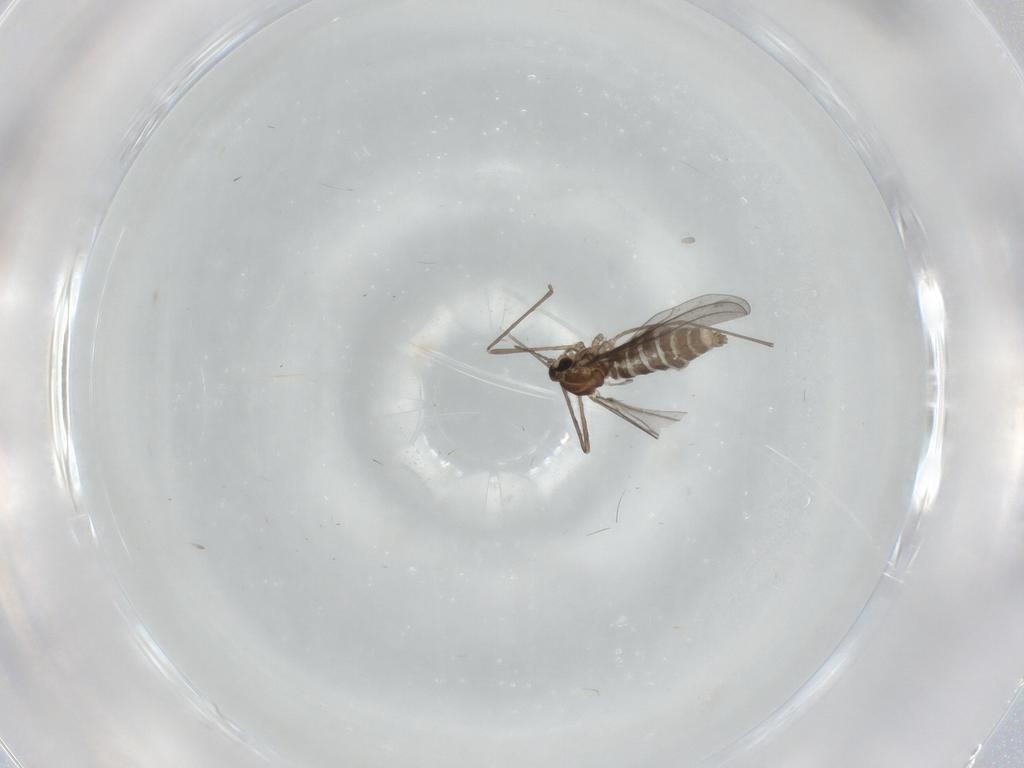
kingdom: Animalia
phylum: Arthropoda
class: Insecta
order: Diptera
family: Cecidomyiidae
